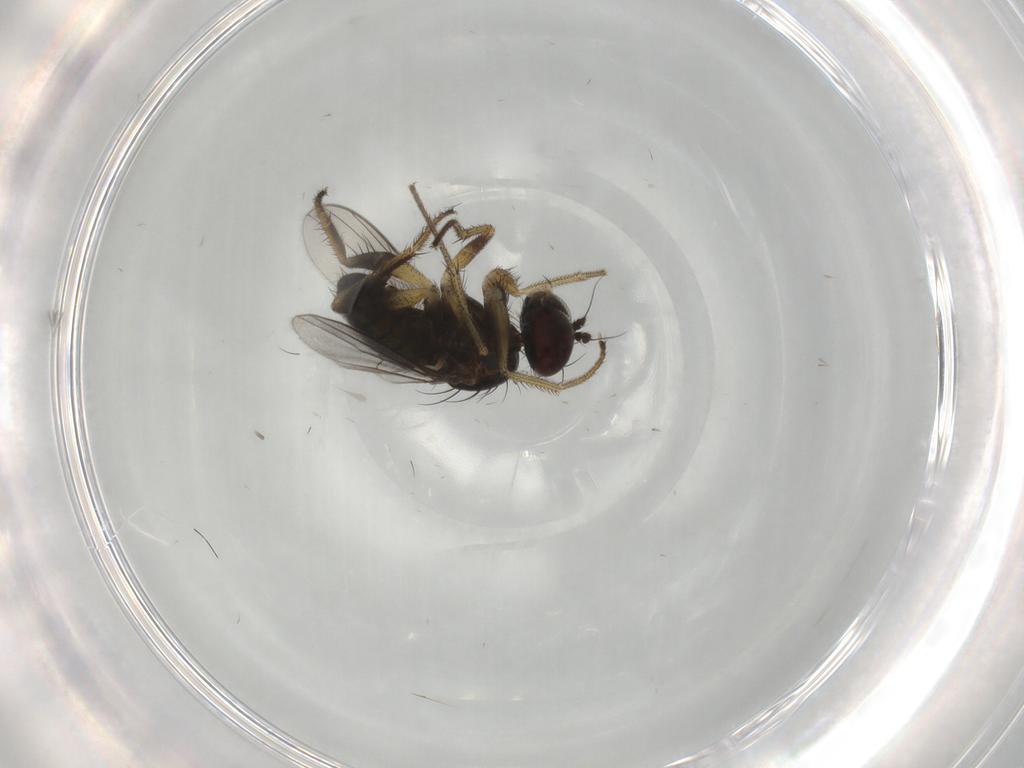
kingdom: Animalia
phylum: Arthropoda
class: Insecta
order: Diptera
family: Dolichopodidae
